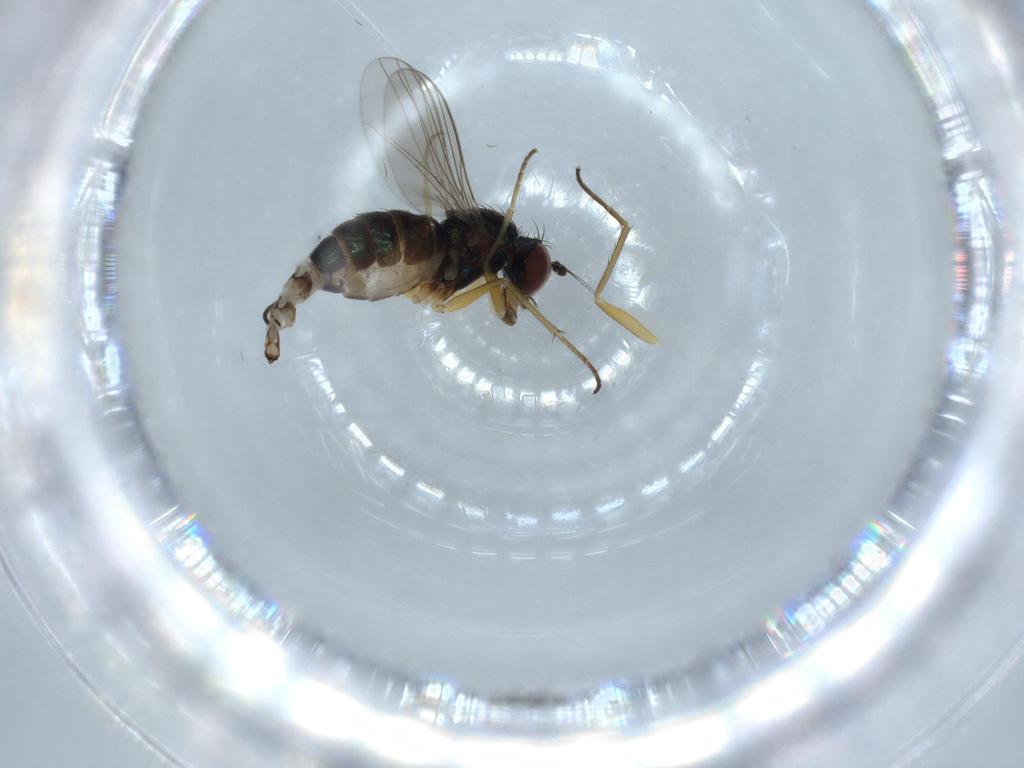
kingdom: Animalia
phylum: Arthropoda
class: Insecta
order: Diptera
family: Dolichopodidae
